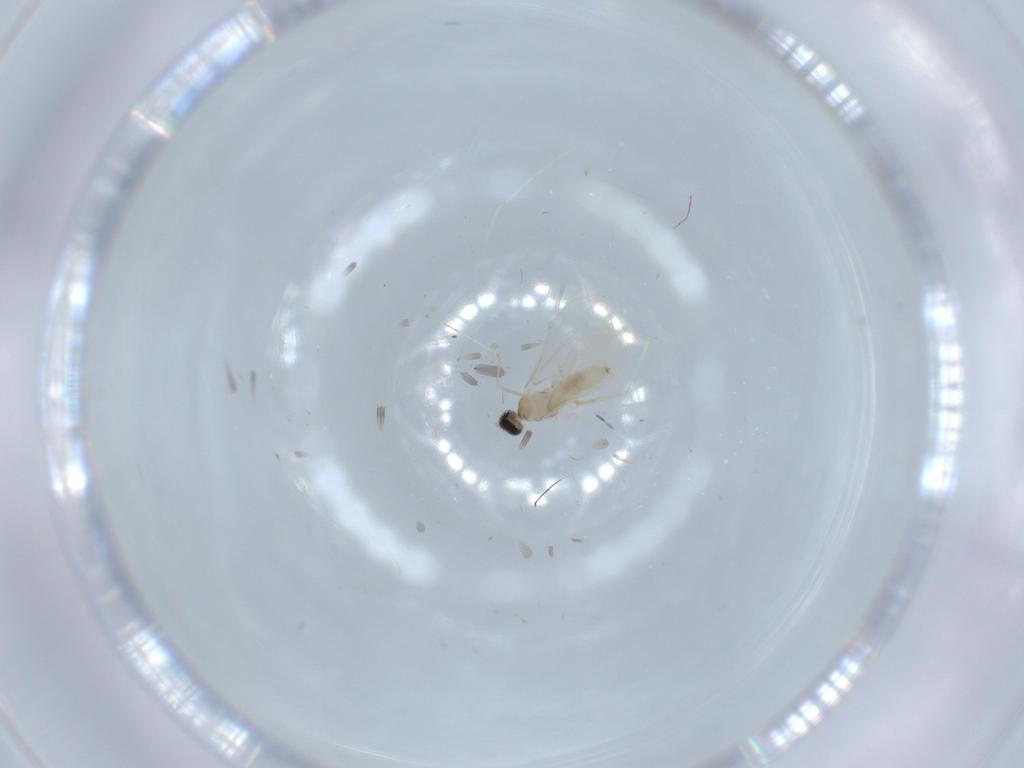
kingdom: Animalia
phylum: Arthropoda
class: Insecta
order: Diptera
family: Cecidomyiidae
